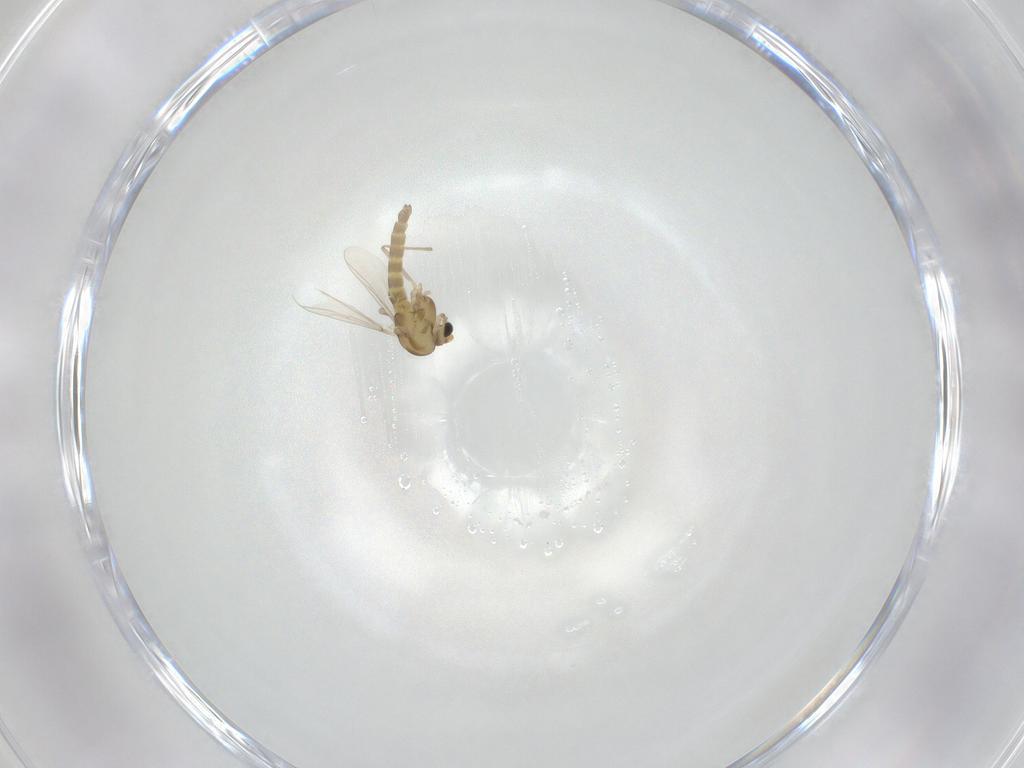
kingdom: Animalia
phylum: Arthropoda
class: Insecta
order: Diptera
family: Chironomidae
